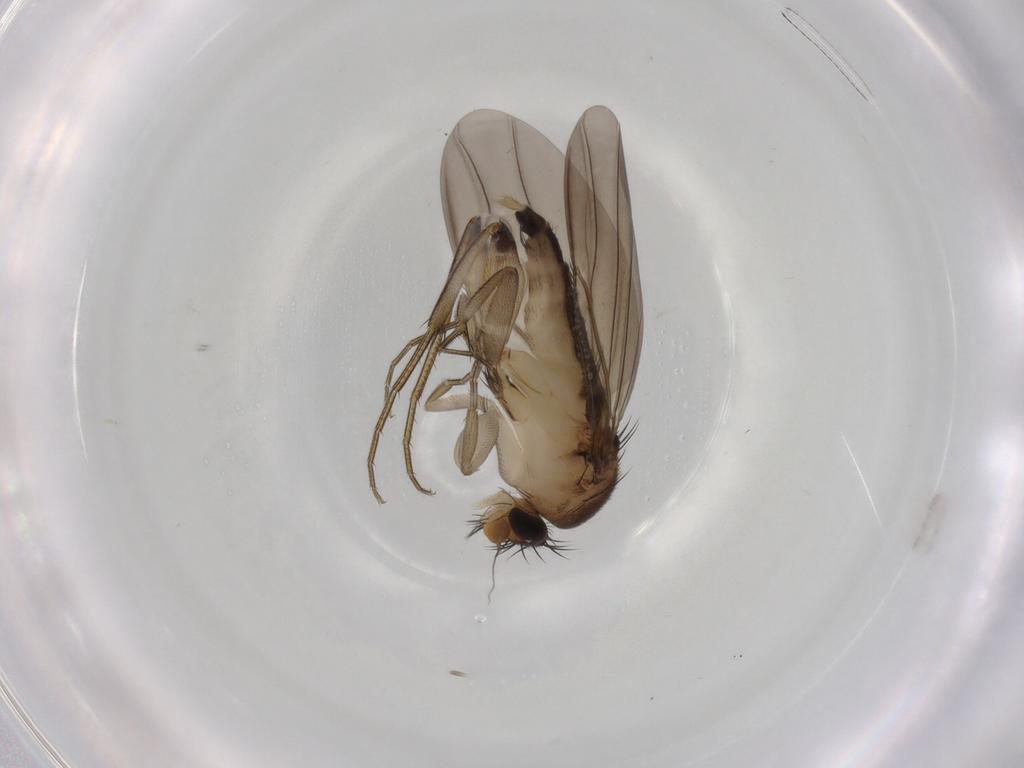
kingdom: Animalia
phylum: Arthropoda
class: Insecta
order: Diptera
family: Phoridae
